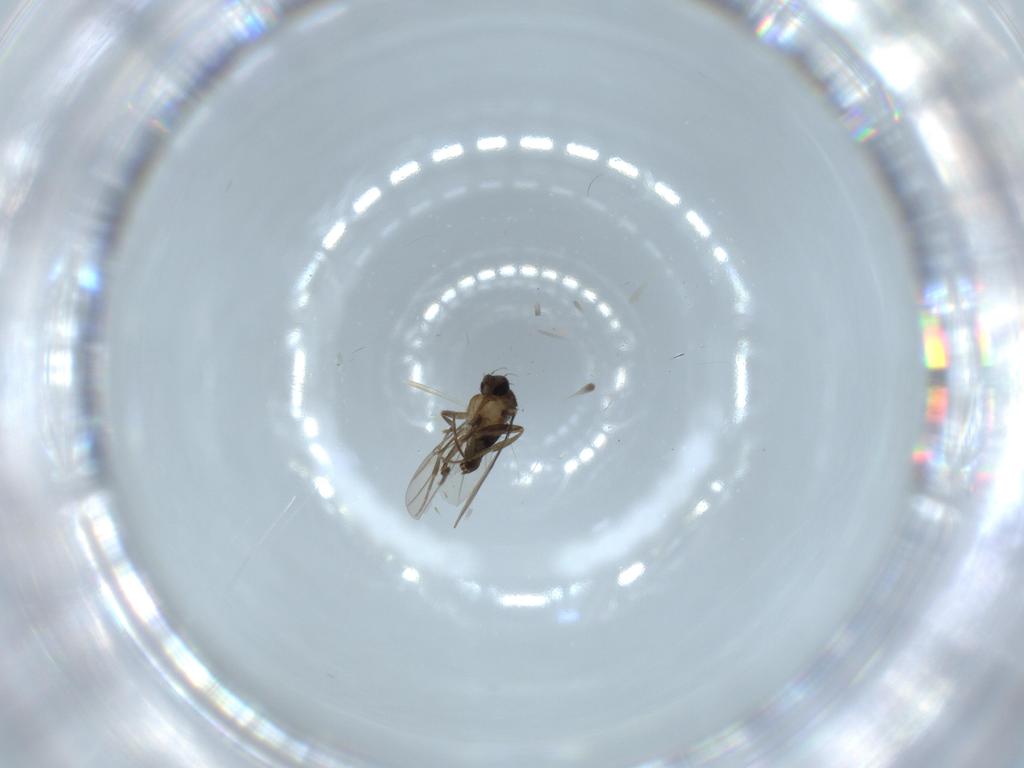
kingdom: Animalia
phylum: Arthropoda
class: Insecta
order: Diptera
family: Phoridae
